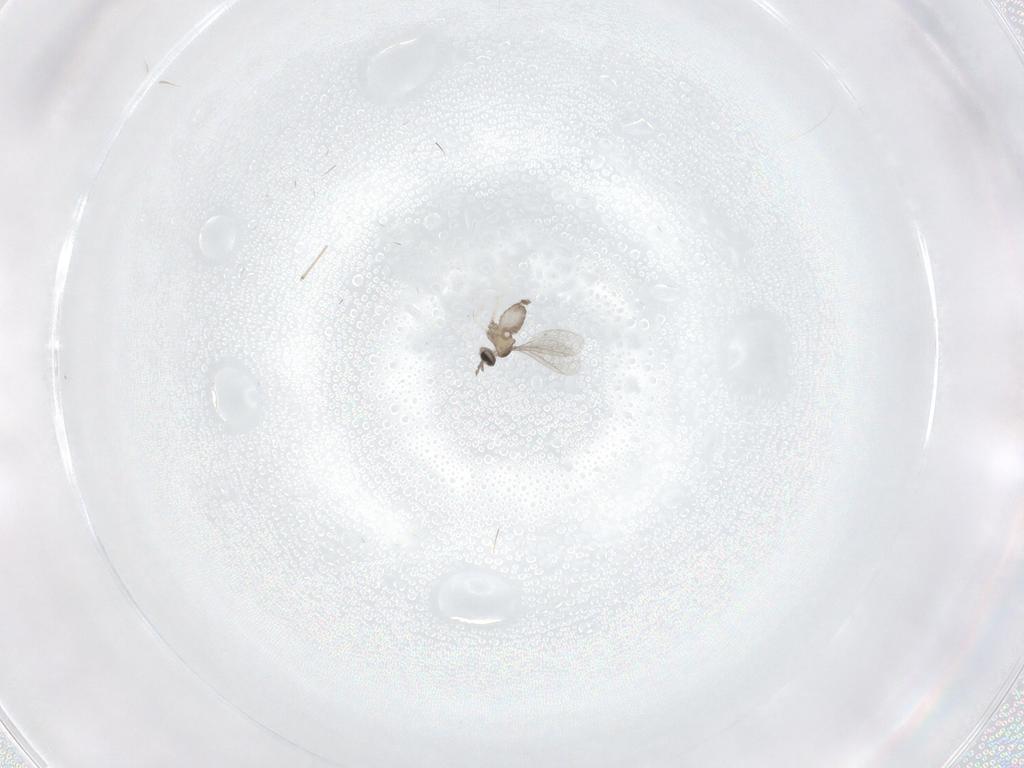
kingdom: Animalia
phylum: Arthropoda
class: Insecta
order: Diptera
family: Cecidomyiidae
